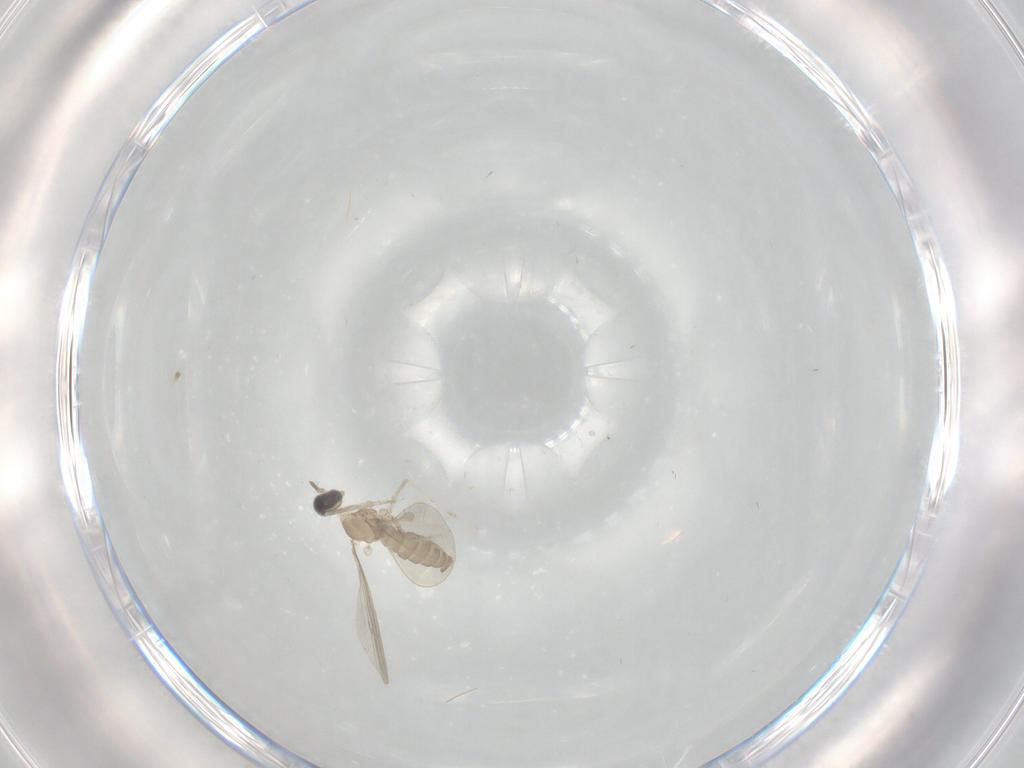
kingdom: Animalia
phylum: Arthropoda
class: Insecta
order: Diptera
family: Cecidomyiidae
